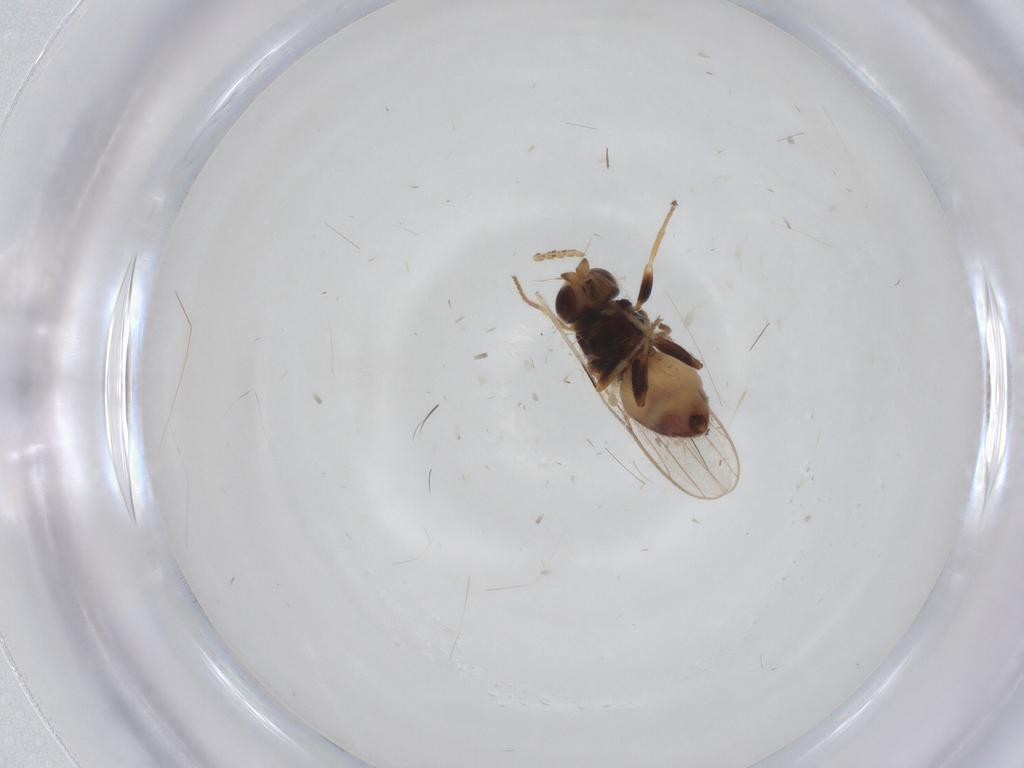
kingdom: Animalia
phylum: Arthropoda
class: Insecta
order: Diptera
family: Chloropidae
